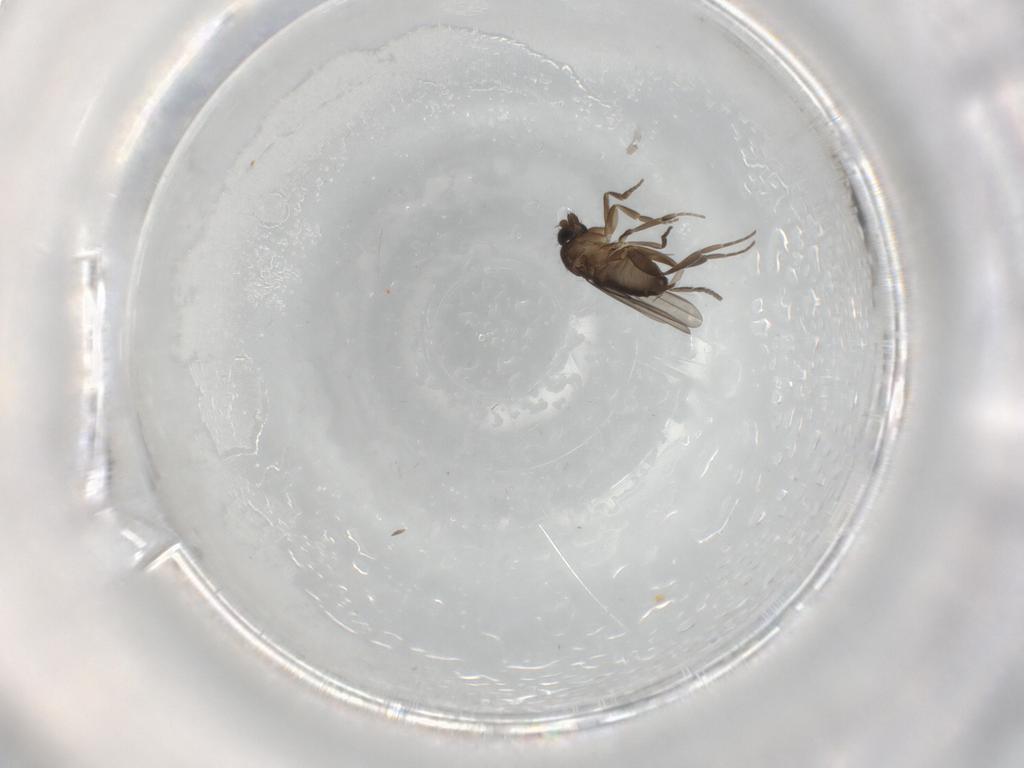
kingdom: Animalia
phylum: Arthropoda
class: Insecta
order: Diptera
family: Phoridae
